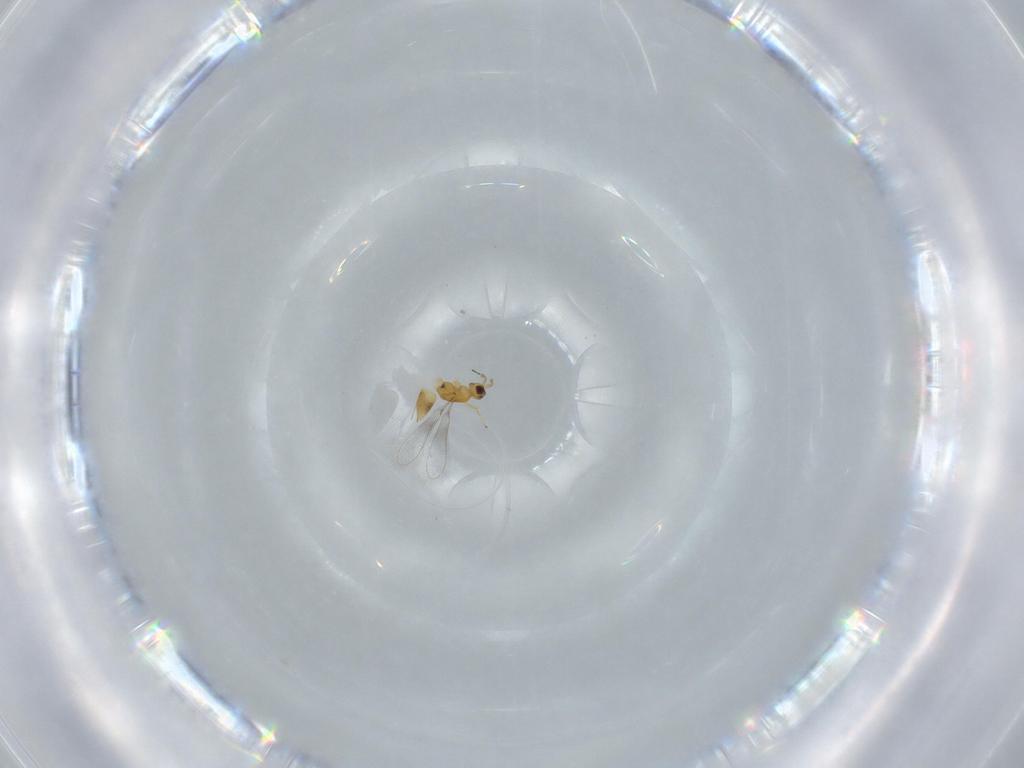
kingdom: Animalia
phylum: Arthropoda
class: Insecta
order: Hymenoptera
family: Mymaridae
